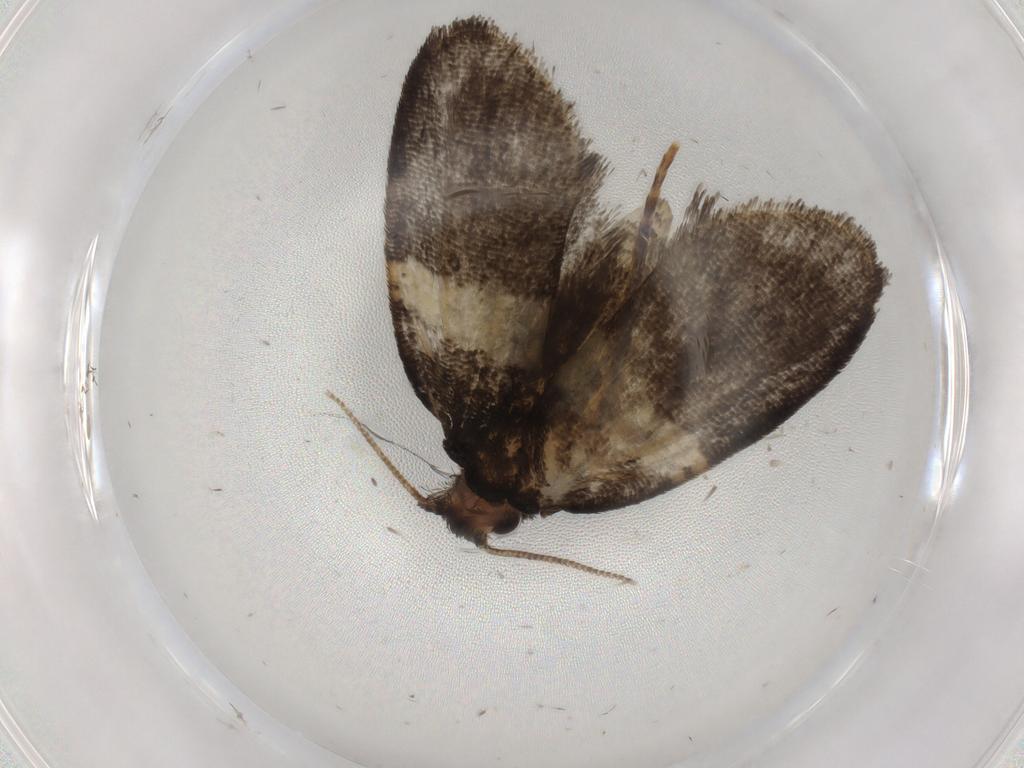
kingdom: Animalia
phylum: Arthropoda
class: Insecta
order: Lepidoptera
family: Psychidae
